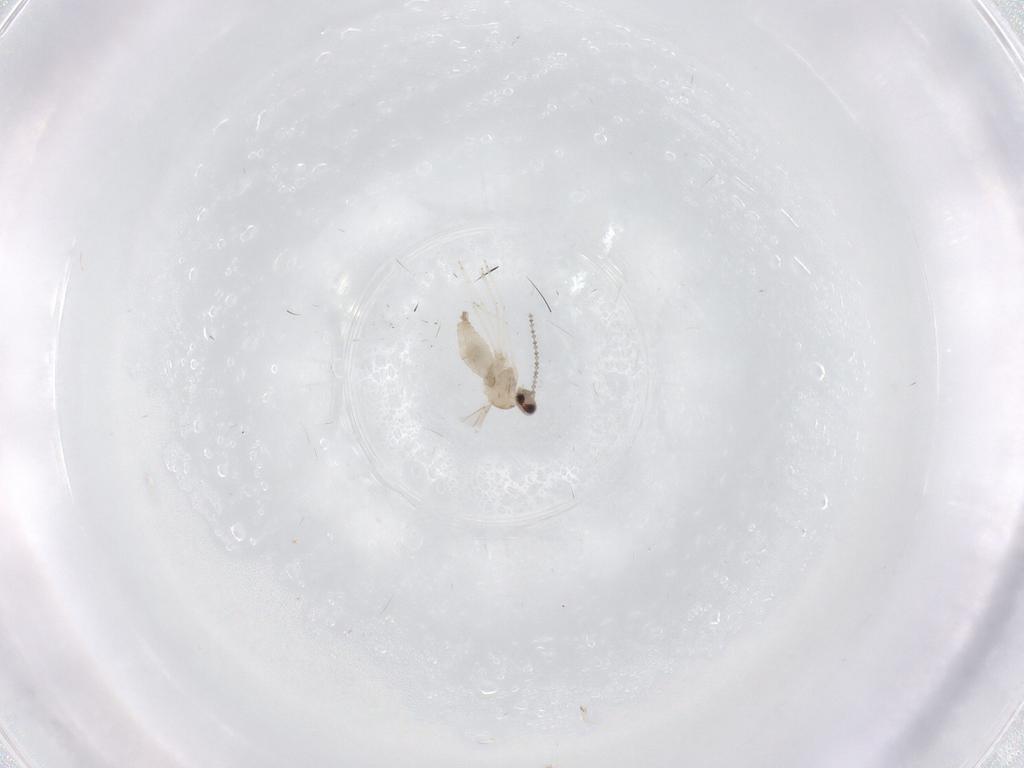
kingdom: Animalia
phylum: Arthropoda
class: Insecta
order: Diptera
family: Cecidomyiidae
